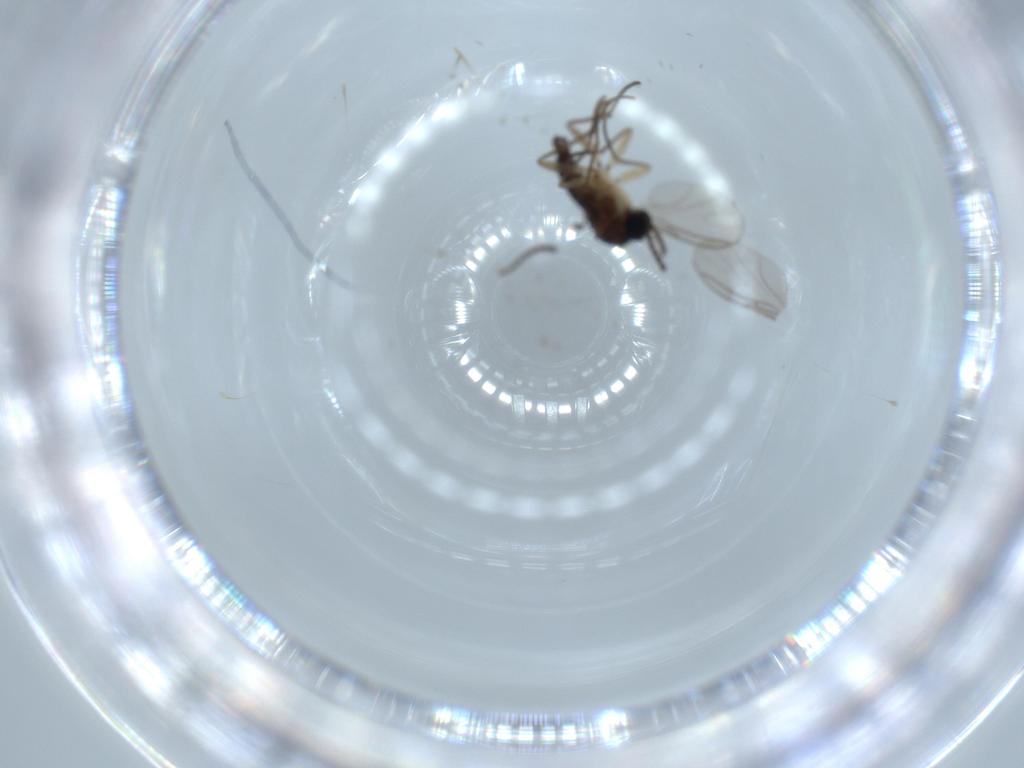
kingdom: Animalia
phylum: Arthropoda
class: Insecta
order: Diptera
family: Sciaridae
